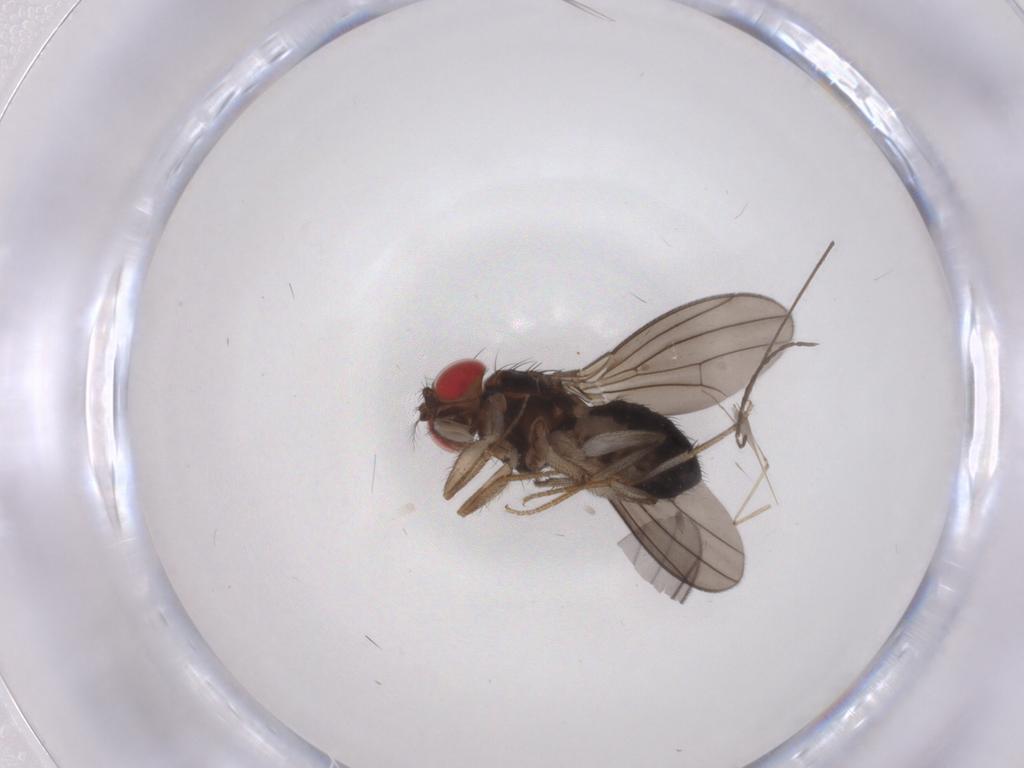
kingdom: Animalia
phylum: Arthropoda
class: Insecta
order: Diptera
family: Drosophilidae
